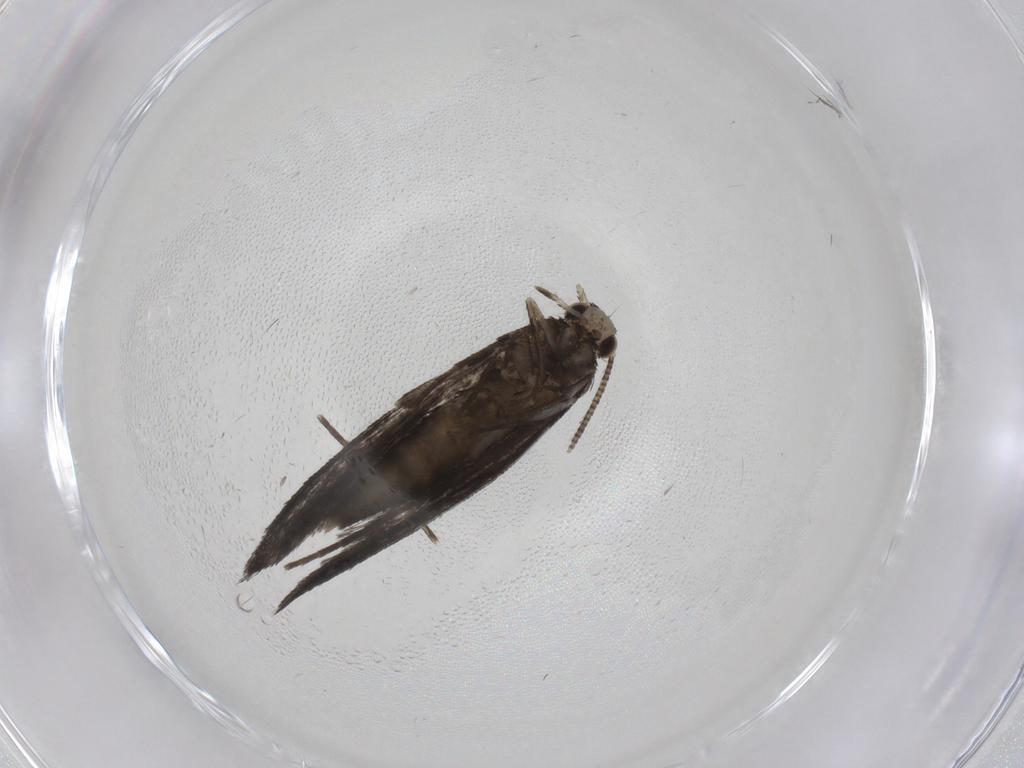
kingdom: Animalia
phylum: Arthropoda
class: Insecta
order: Lepidoptera
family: Nymphalidae
